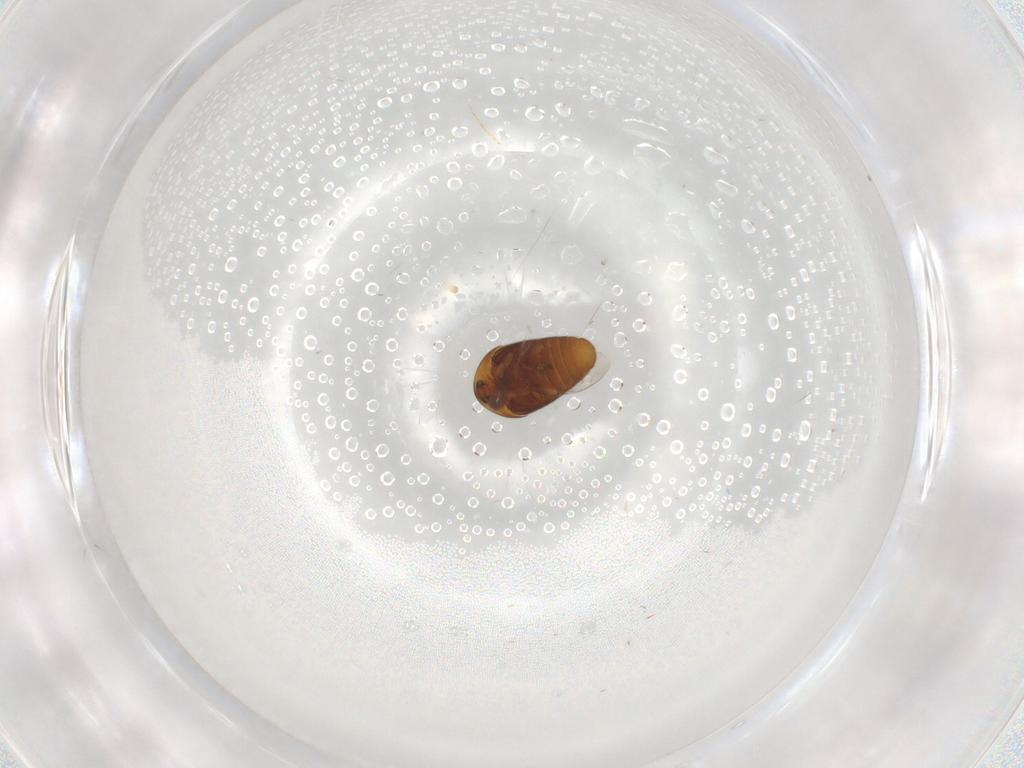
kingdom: Animalia
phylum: Arthropoda
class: Insecta
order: Coleoptera
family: Corylophidae
